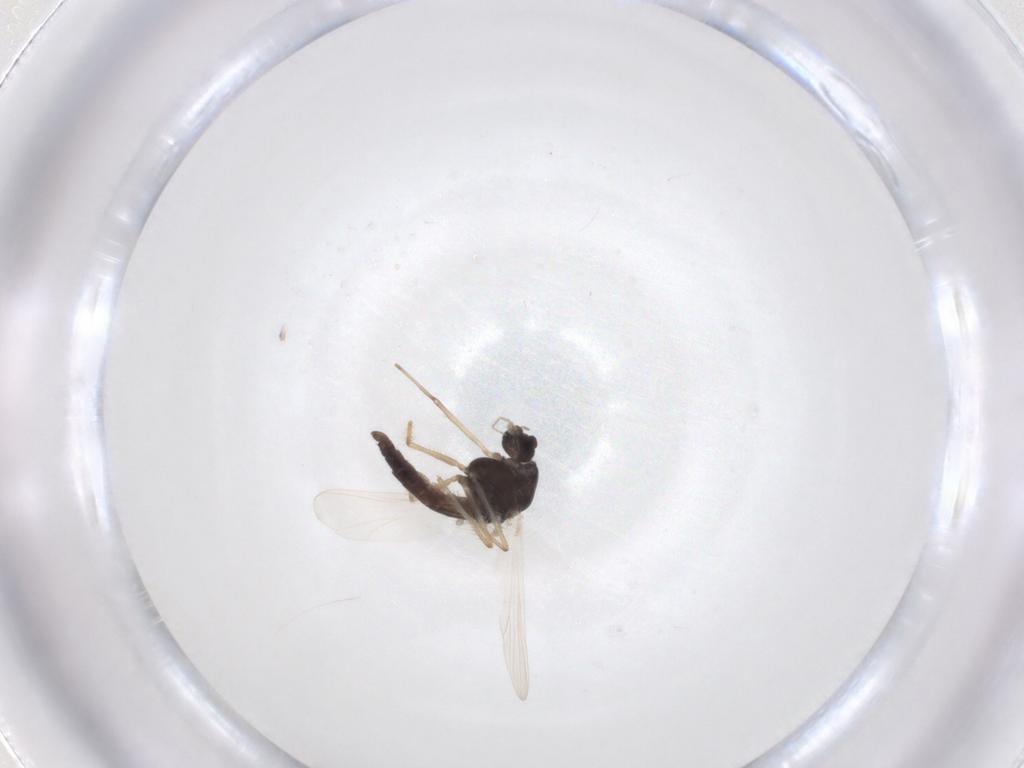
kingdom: Animalia
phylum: Arthropoda
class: Insecta
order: Diptera
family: Chironomidae
